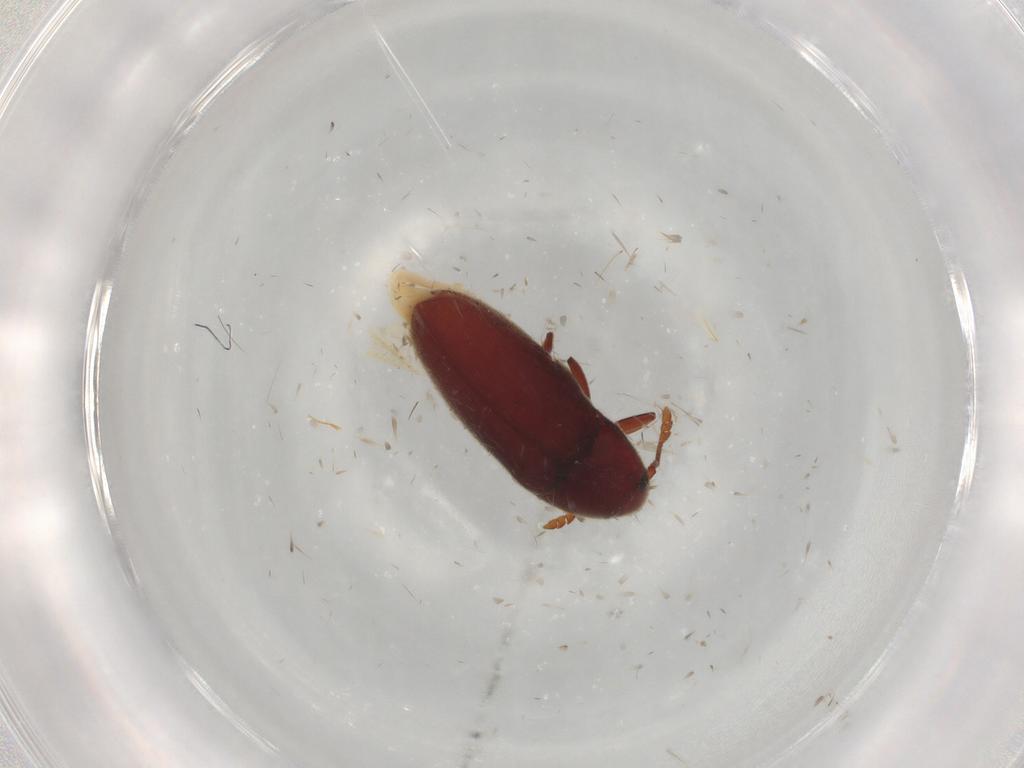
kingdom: Animalia
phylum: Arthropoda
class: Insecta
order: Coleoptera
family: Throscidae
